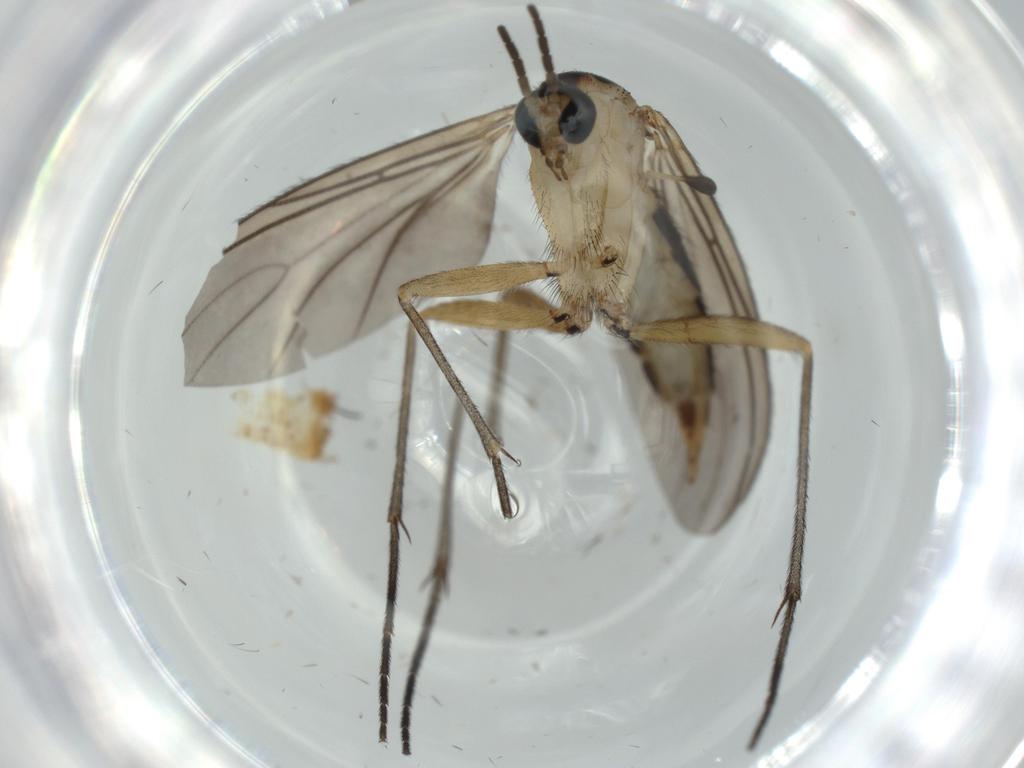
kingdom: Animalia
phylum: Arthropoda
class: Insecta
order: Diptera
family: Sciaridae
